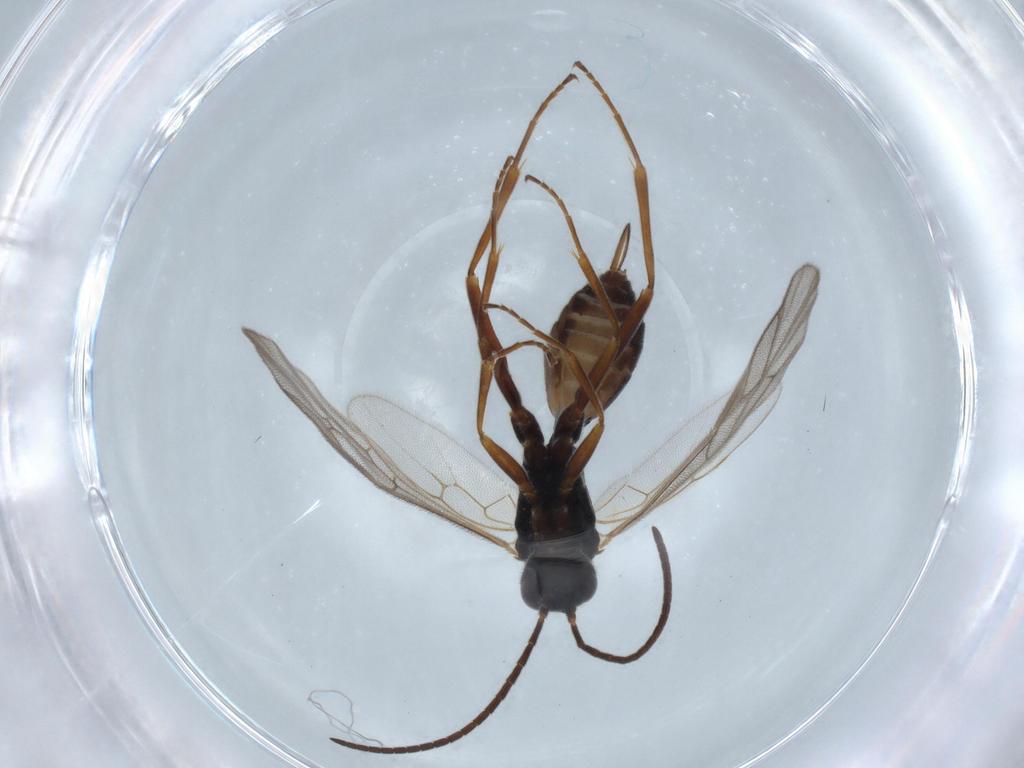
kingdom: Animalia
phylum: Arthropoda
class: Insecta
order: Hymenoptera
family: Ichneumonidae
